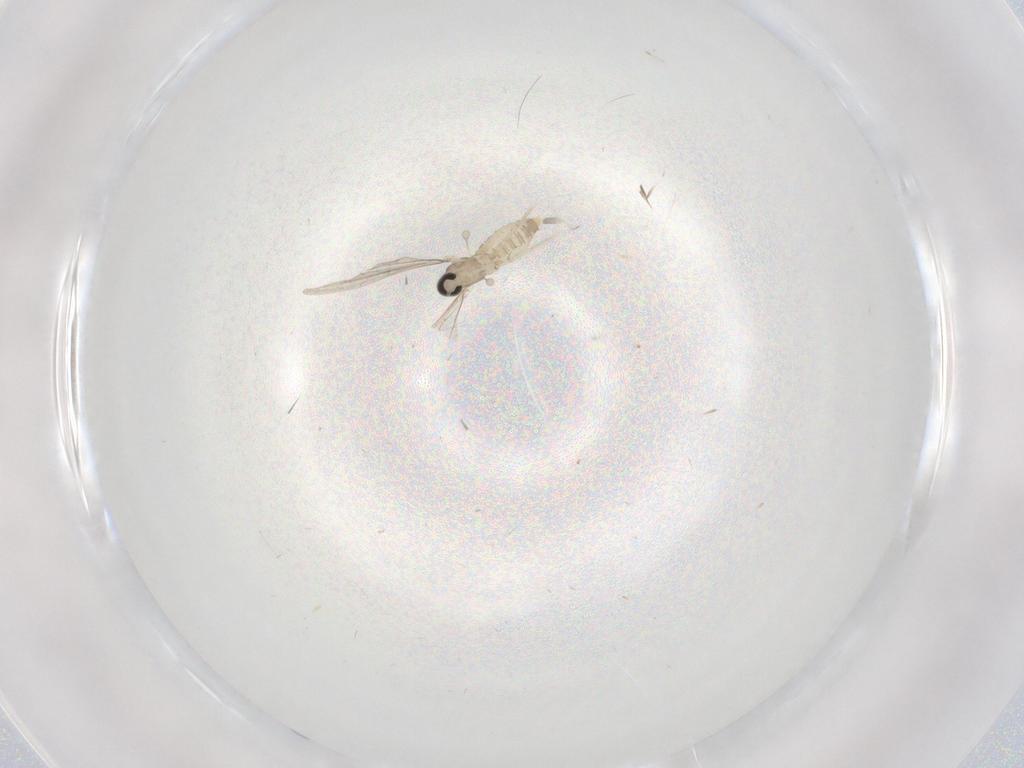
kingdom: Animalia
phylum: Arthropoda
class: Insecta
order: Diptera
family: Cecidomyiidae
